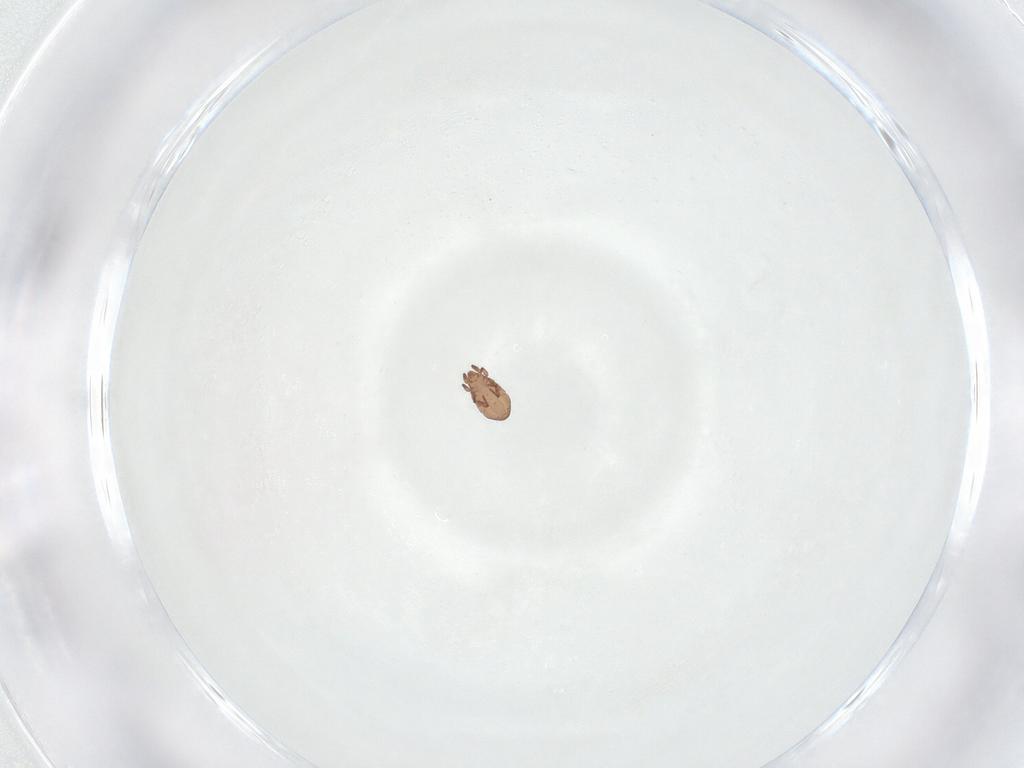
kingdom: Animalia
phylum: Arthropoda
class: Arachnida
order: Sarcoptiformes
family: Eremaeidae
